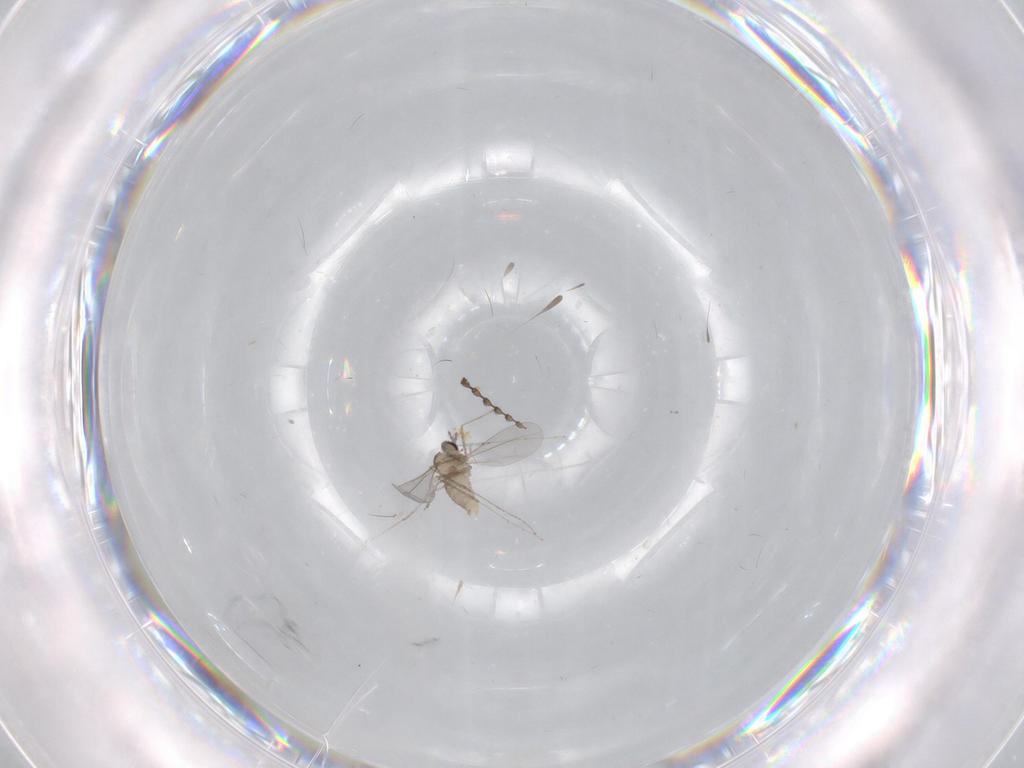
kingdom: Animalia
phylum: Arthropoda
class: Insecta
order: Diptera
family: Cecidomyiidae
